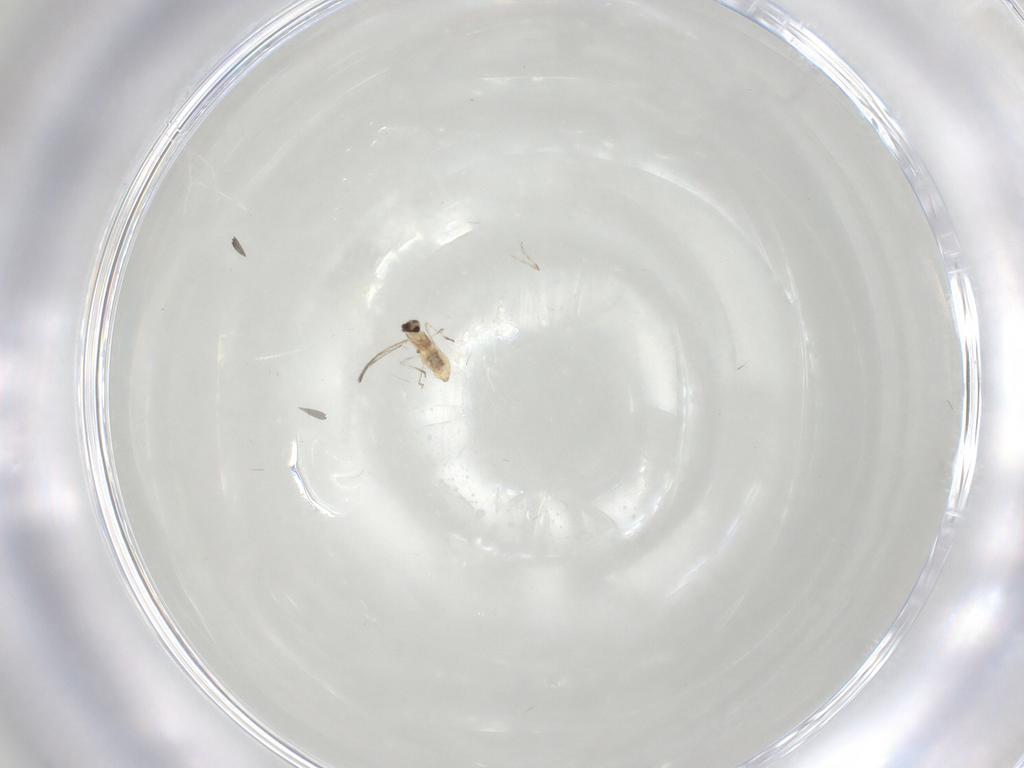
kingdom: Animalia
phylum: Arthropoda
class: Insecta
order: Diptera
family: Cecidomyiidae
